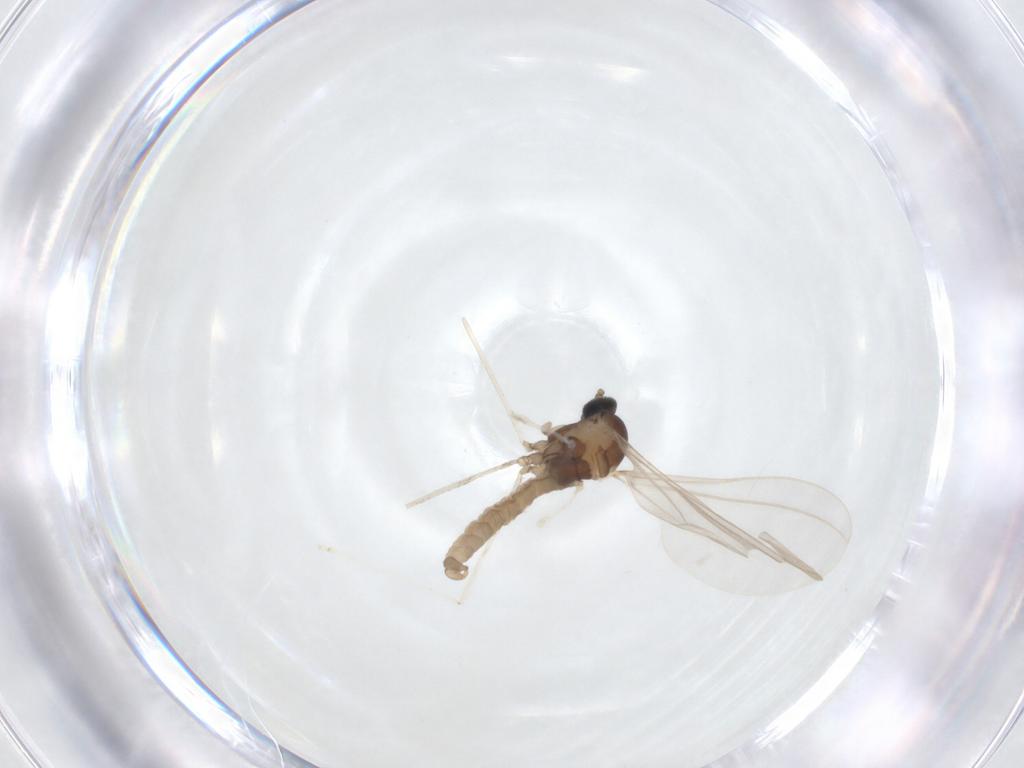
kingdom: Animalia
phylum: Arthropoda
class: Insecta
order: Diptera
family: Cecidomyiidae
